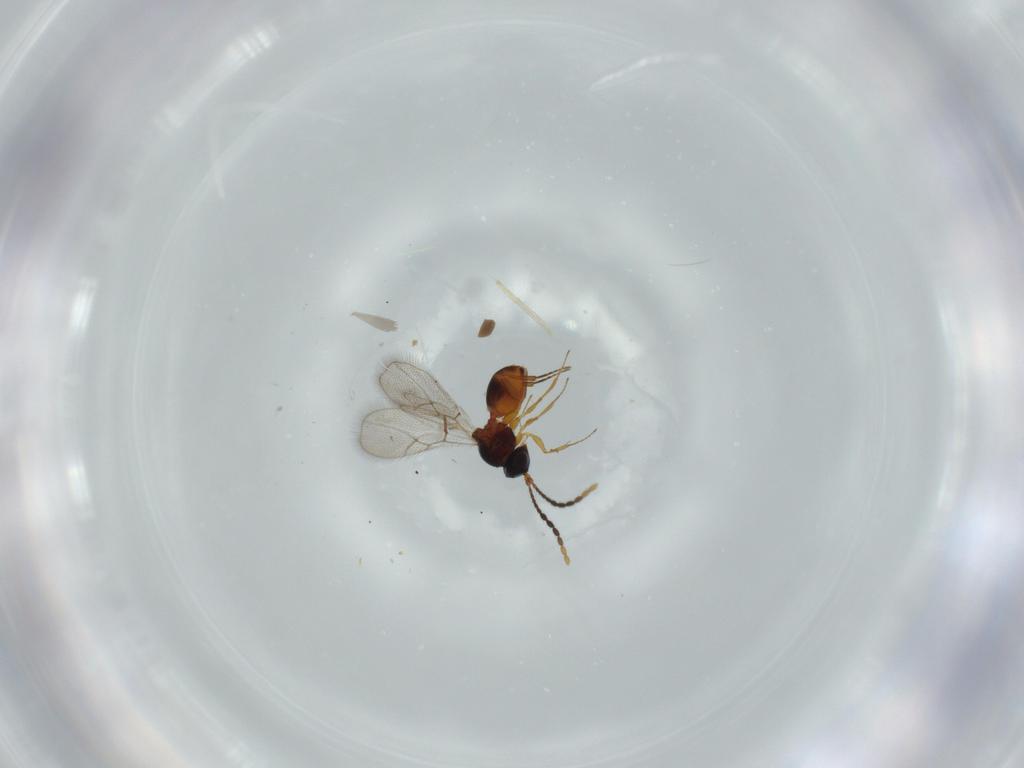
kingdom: Animalia
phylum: Arthropoda
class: Insecta
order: Hymenoptera
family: Figitidae
